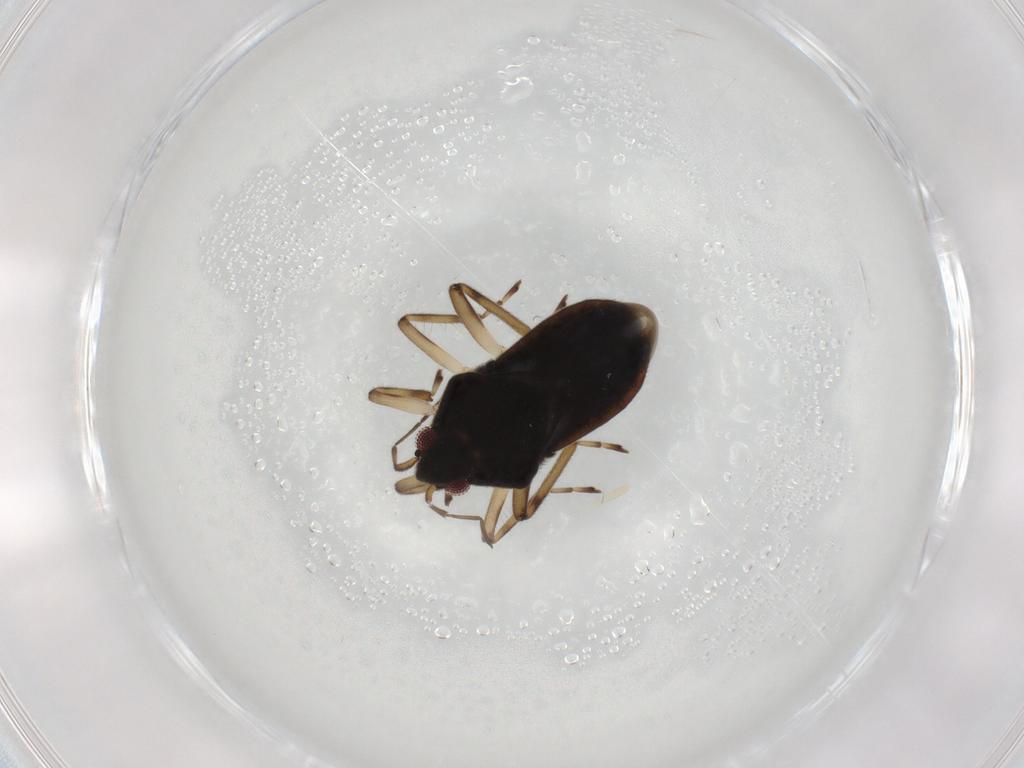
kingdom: Animalia
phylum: Arthropoda
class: Insecta
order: Hemiptera
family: Veliidae
